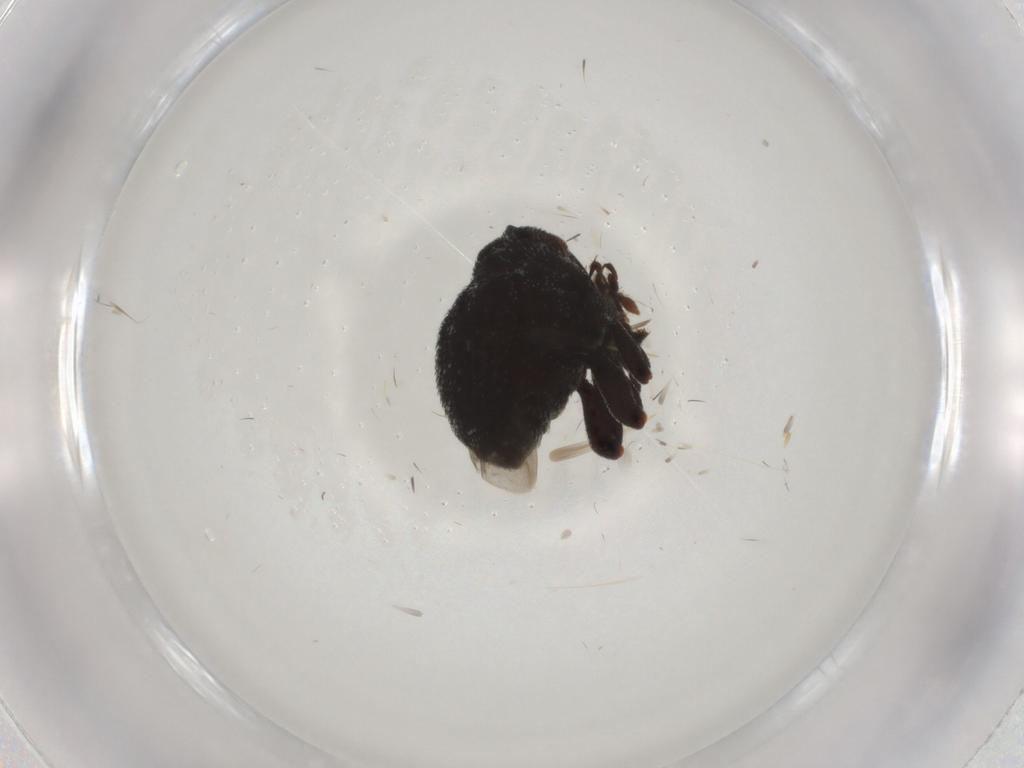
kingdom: Animalia
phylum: Arthropoda
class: Insecta
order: Coleoptera
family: Curculionidae
